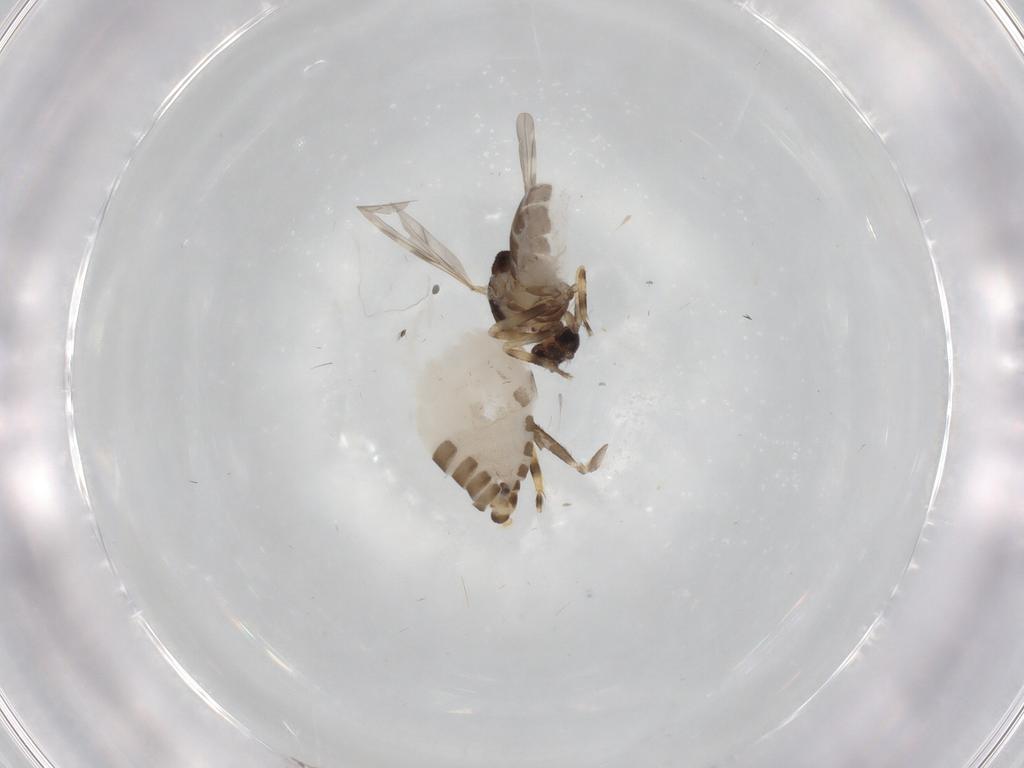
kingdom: Animalia
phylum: Arthropoda
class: Insecta
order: Diptera
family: Ceratopogonidae
